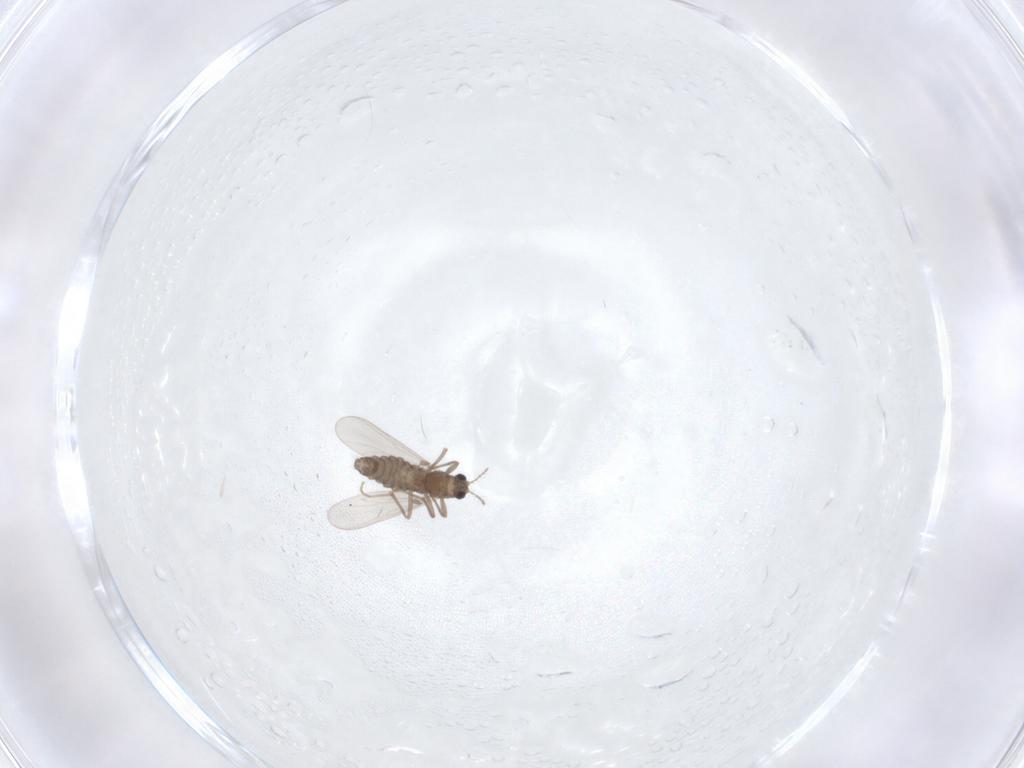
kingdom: Animalia
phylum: Arthropoda
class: Insecta
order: Diptera
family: Chironomidae
